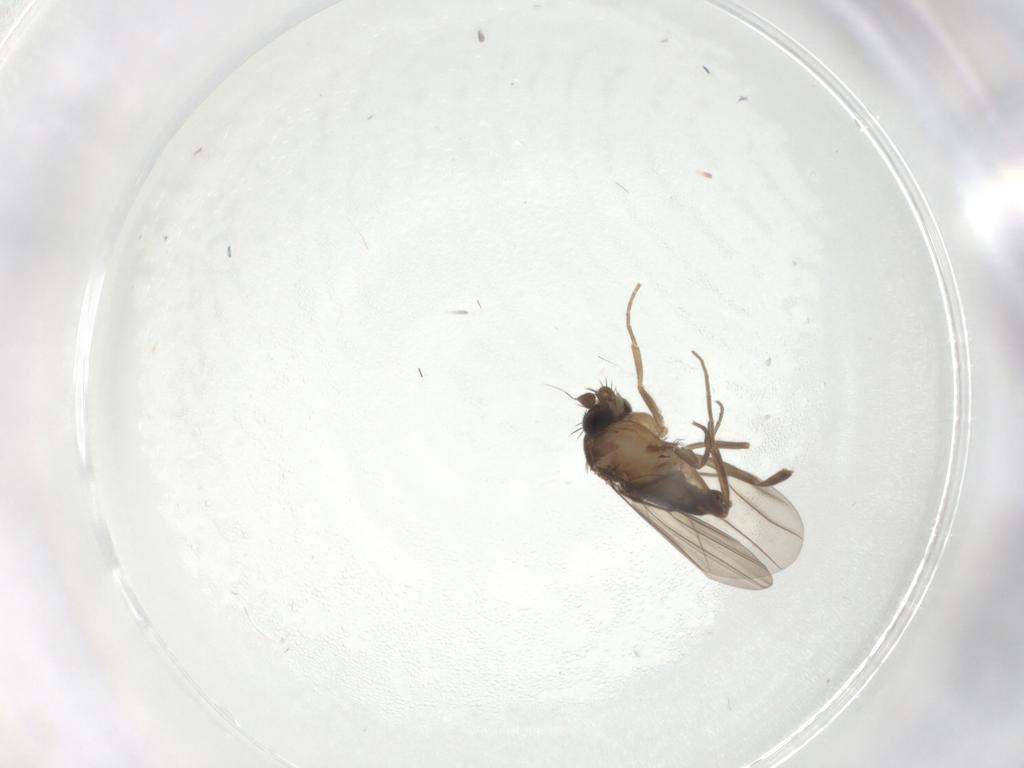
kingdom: Animalia
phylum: Arthropoda
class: Insecta
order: Diptera
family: Phoridae
